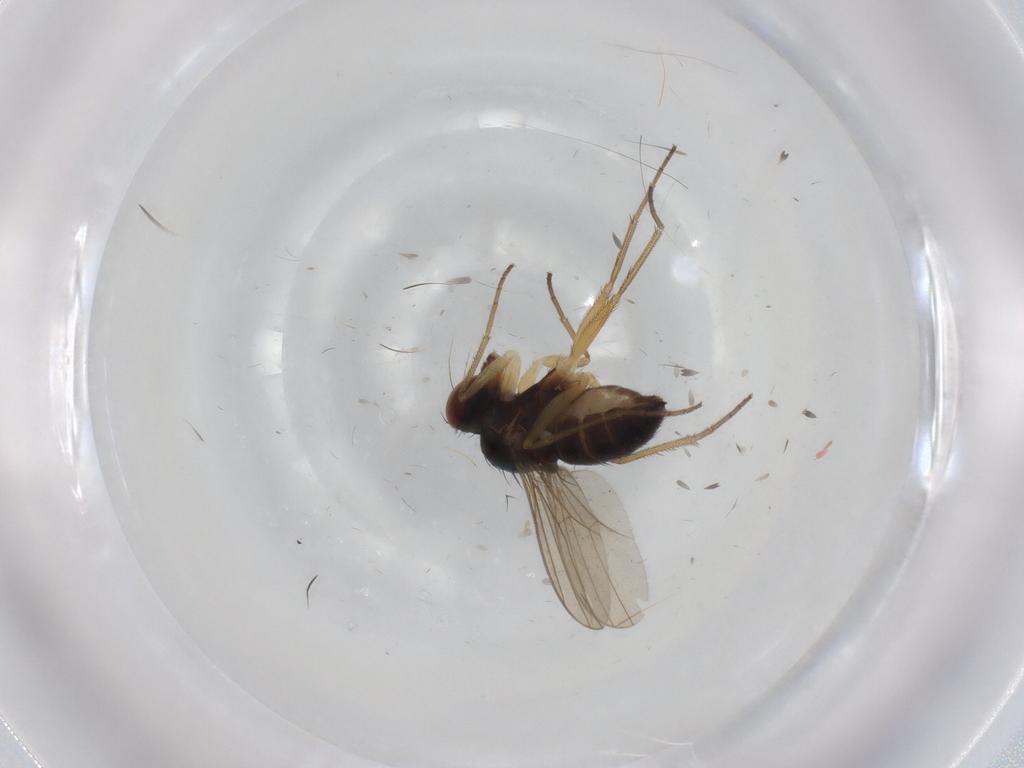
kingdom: Animalia
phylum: Arthropoda
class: Insecta
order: Diptera
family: Dolichopodidae
